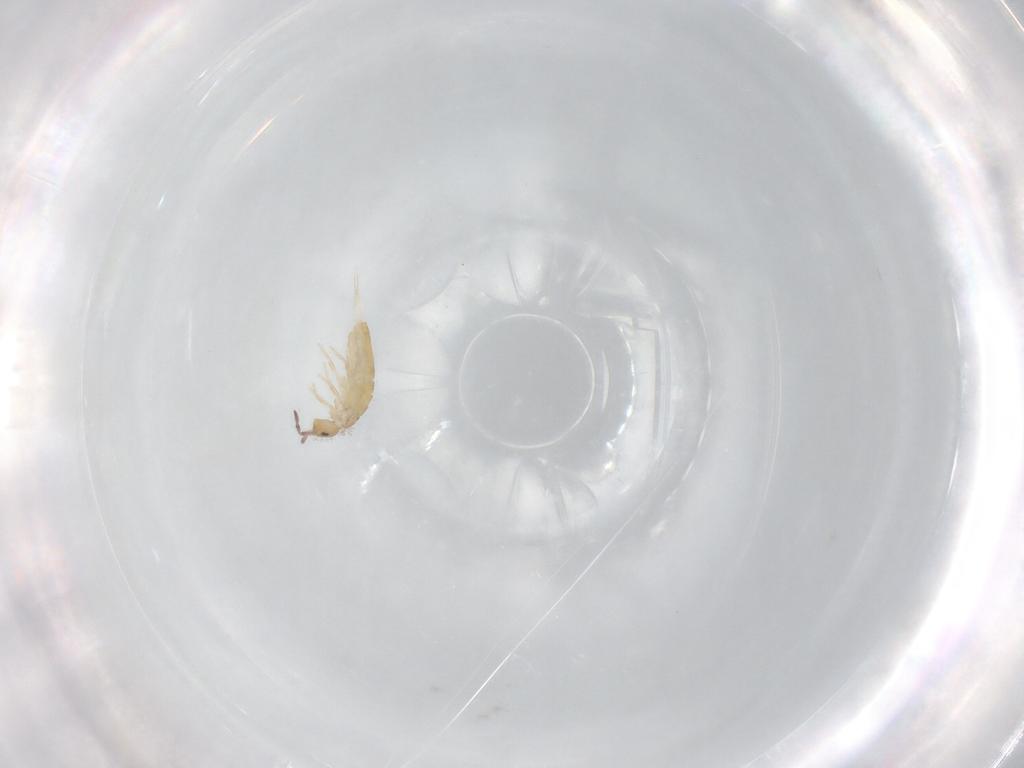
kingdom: Animalia
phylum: Arthropoda
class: Collembola
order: Entomobryomorpha
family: Entomobryidae
